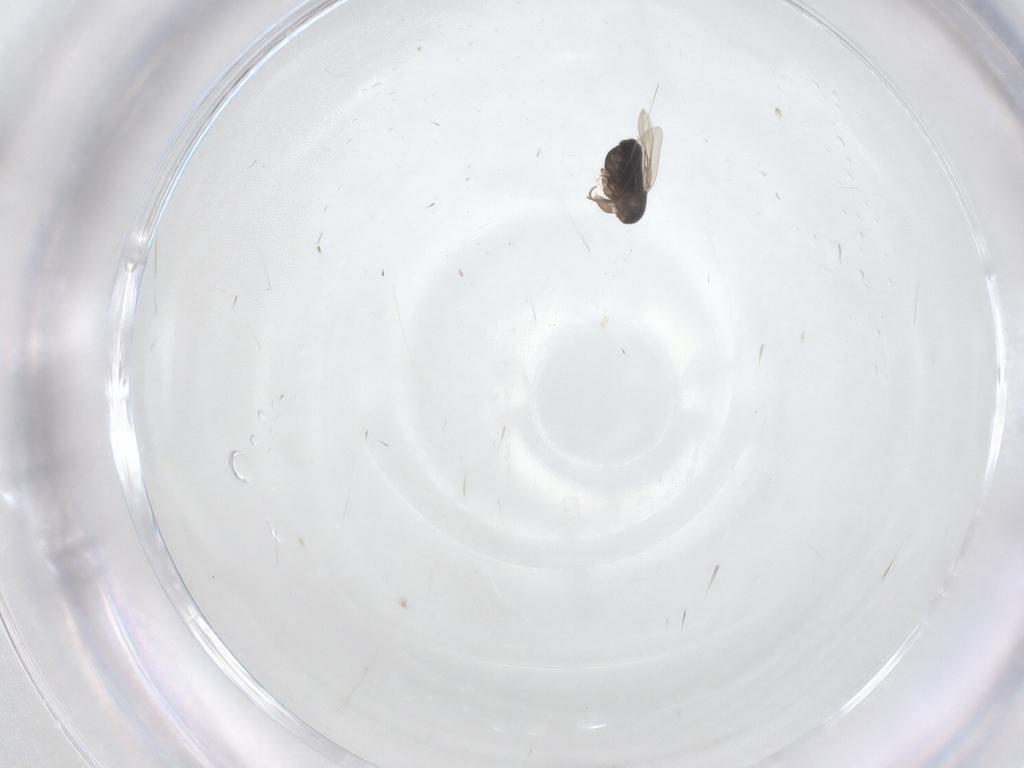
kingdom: Animalia
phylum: Arthropoda
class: Insecta
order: Diptera
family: Phoridae
